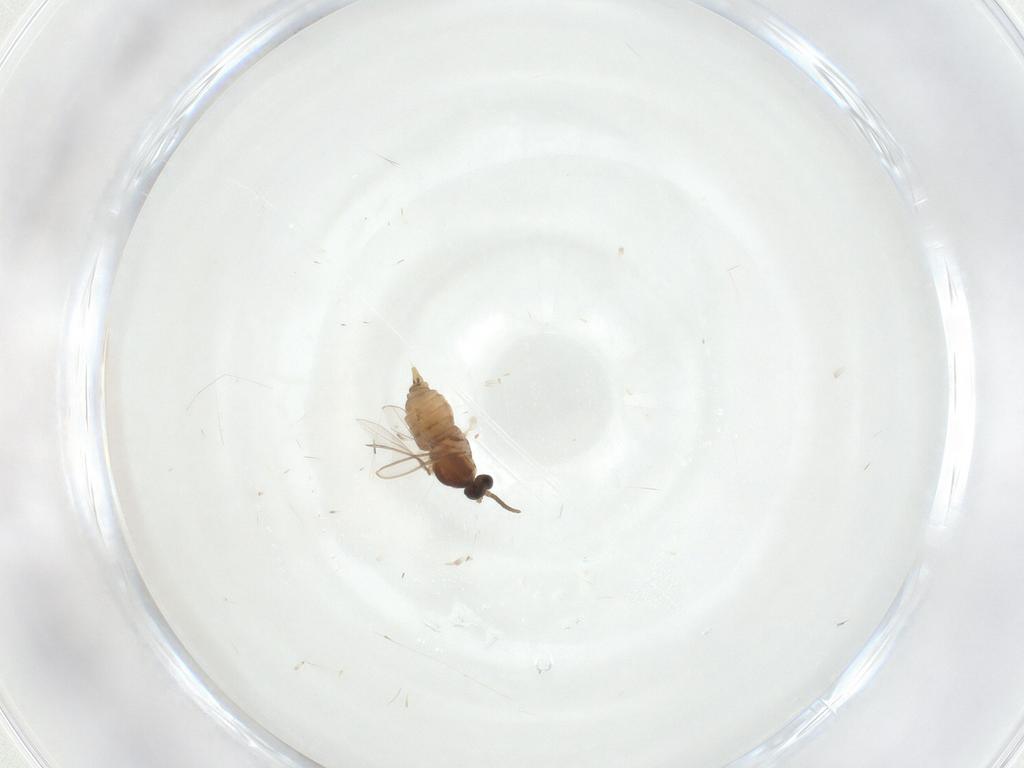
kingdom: Animalia
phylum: Arthropoda
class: Insecta
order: Diptera
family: Cecidomyiidae
